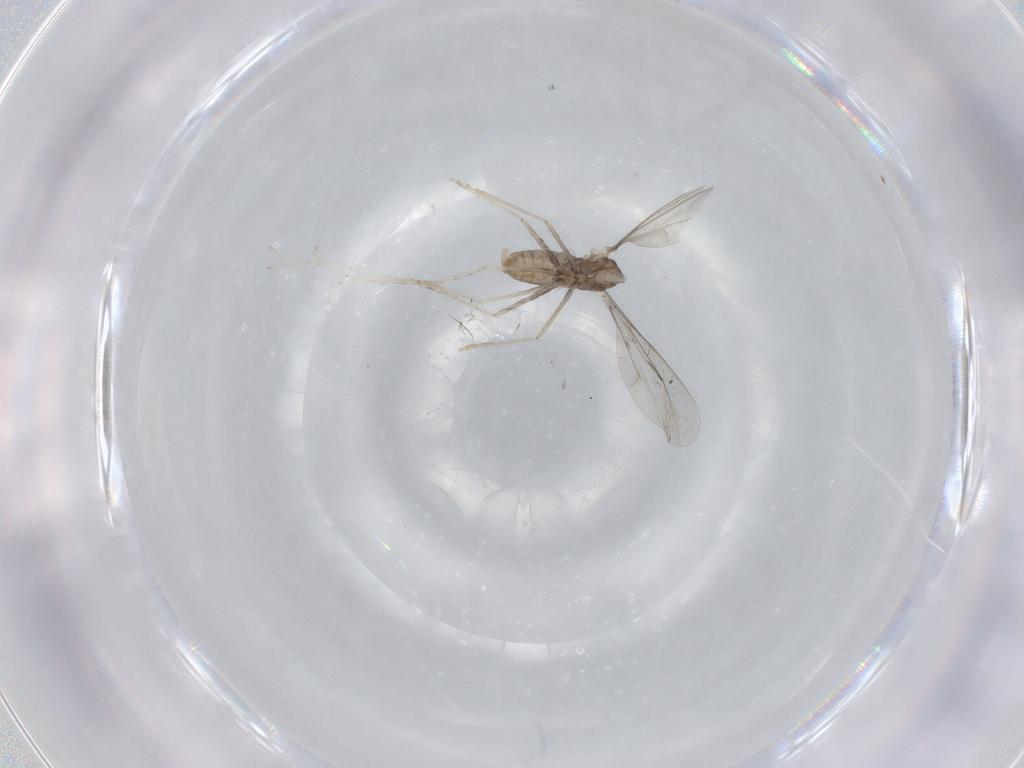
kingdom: Animalia
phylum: Arthropoda
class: Insecta
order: Diptera
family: Cecidomyiidae
